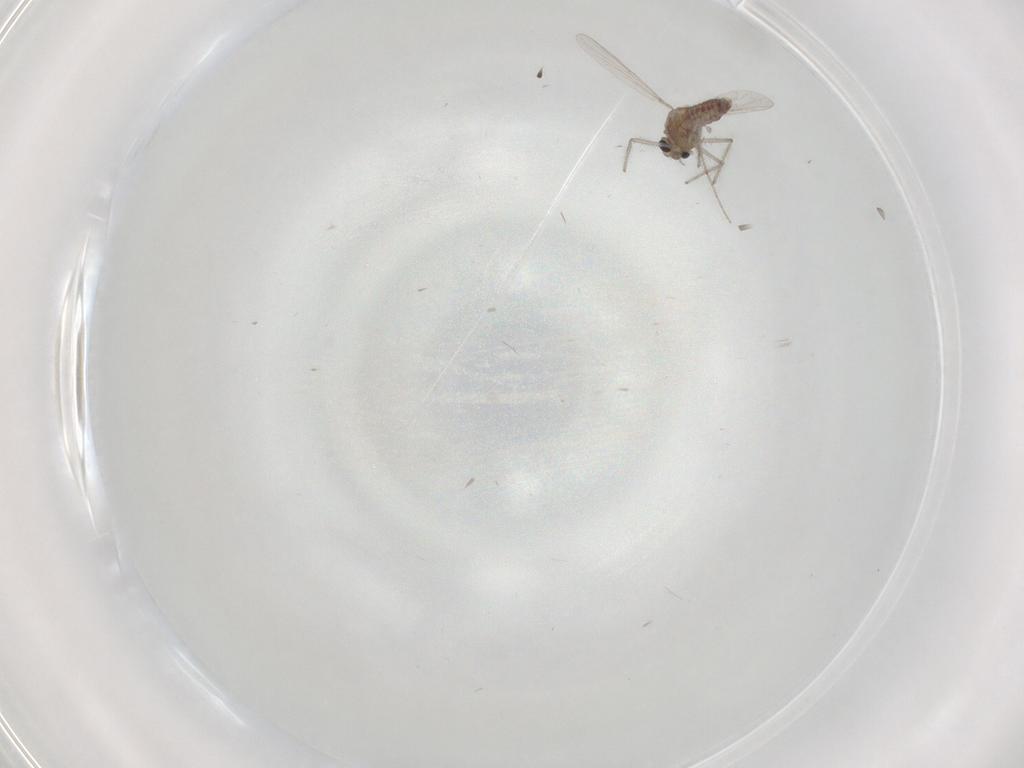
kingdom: Animalia
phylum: Arthropoda
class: Insecta
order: Diptera
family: Chironomidae
